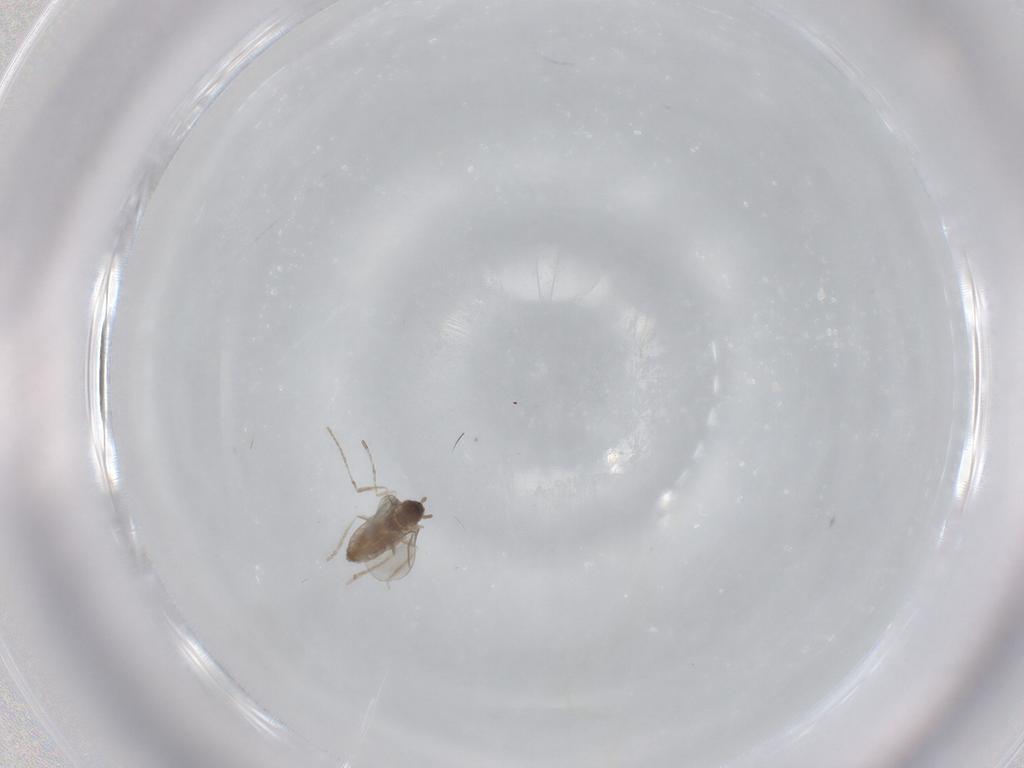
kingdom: Animalia
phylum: Arthropoda
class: Insecta
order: Diptera
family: Cecidomyiidae
